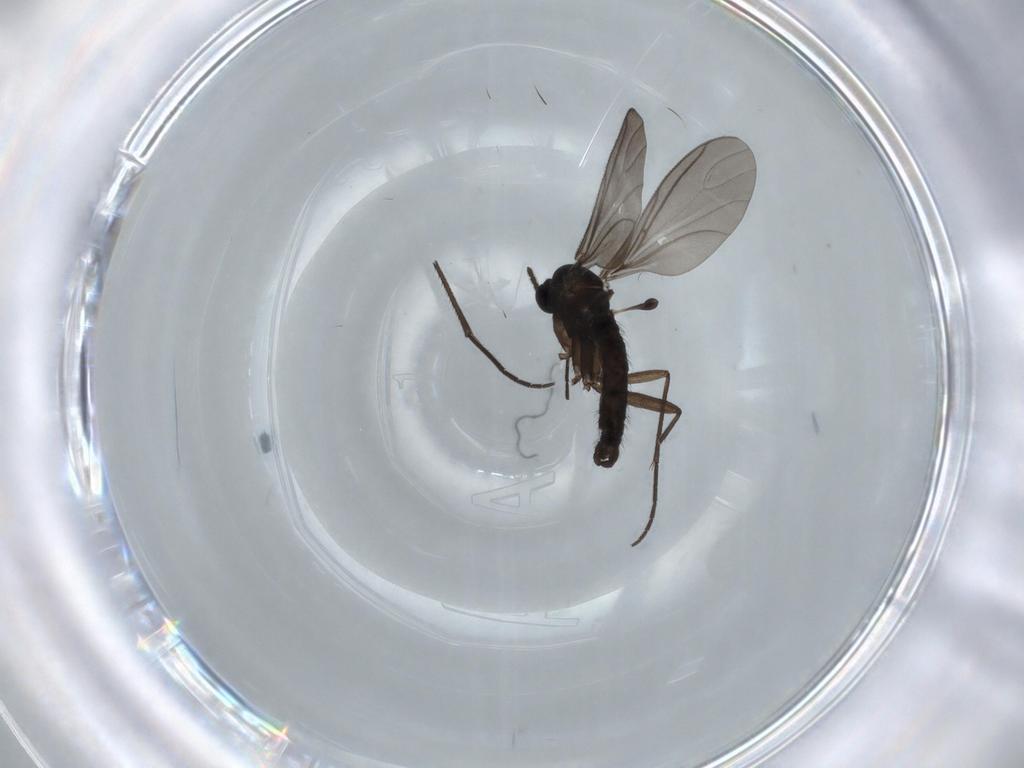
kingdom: Animalia
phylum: Arthropoda
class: Insecta
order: Diptera
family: Sciaridae
